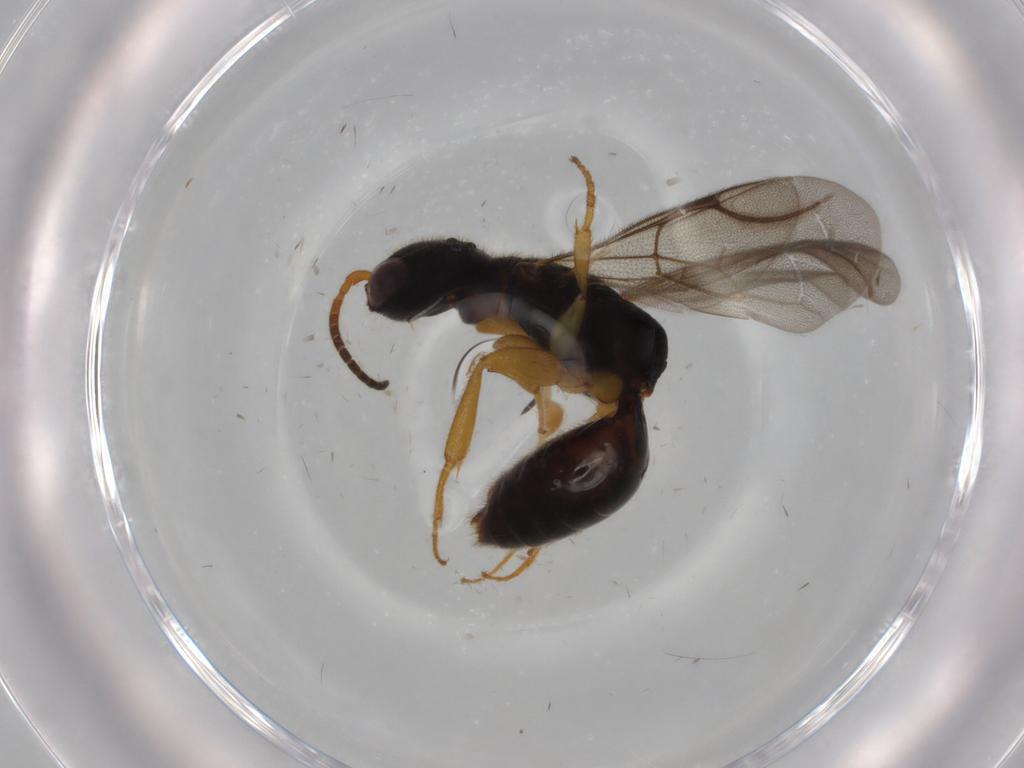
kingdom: Animalia
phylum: Arthropoda
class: Insecta
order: Hymenoptera
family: Bethylidae
